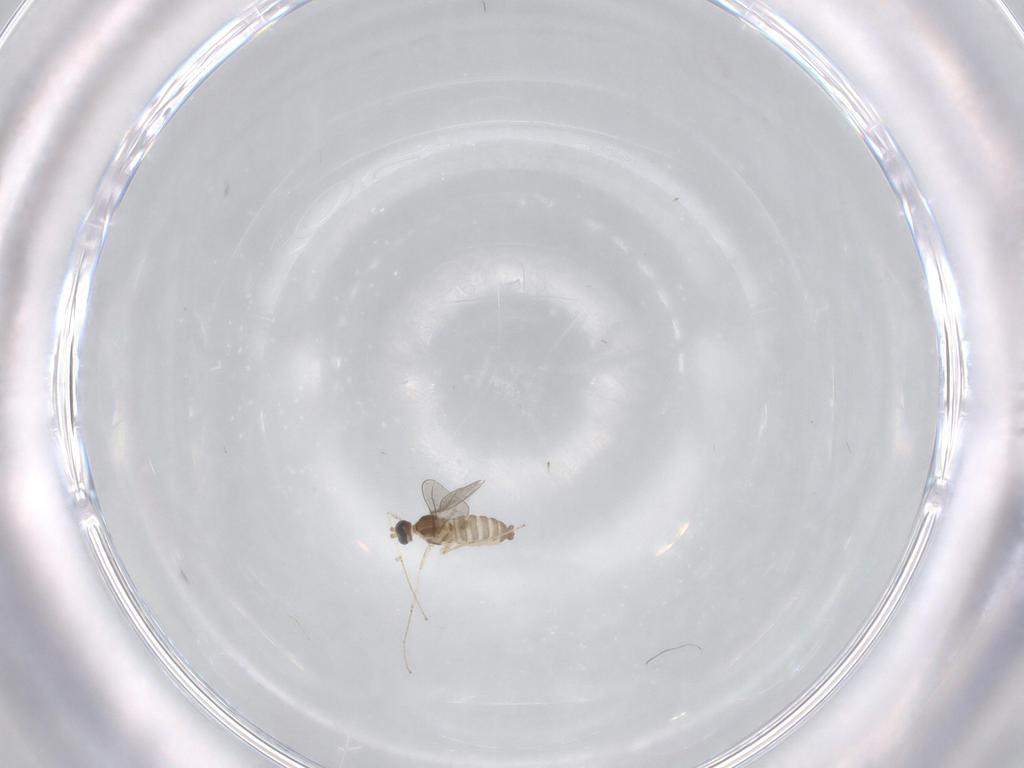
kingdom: Animalia
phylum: Arthropoda
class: Insecta
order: Diptera
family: Cecidomyiidae
